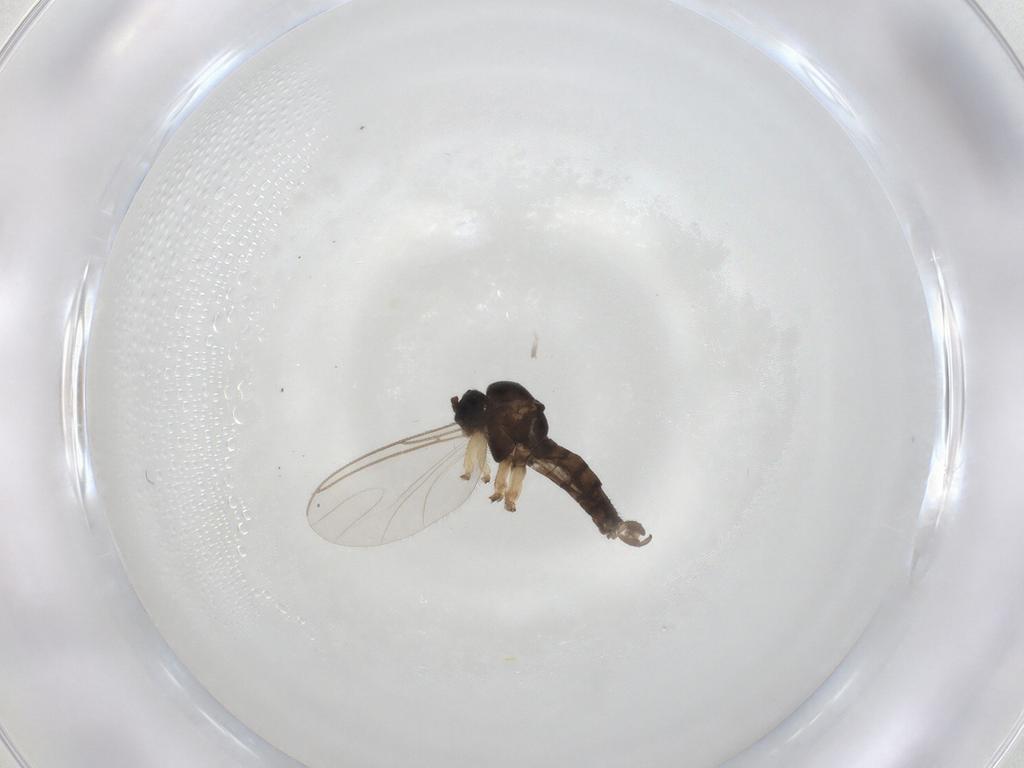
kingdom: Animalia
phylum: Arthropoda
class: Insecta
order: Diptera
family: Sciaridae
